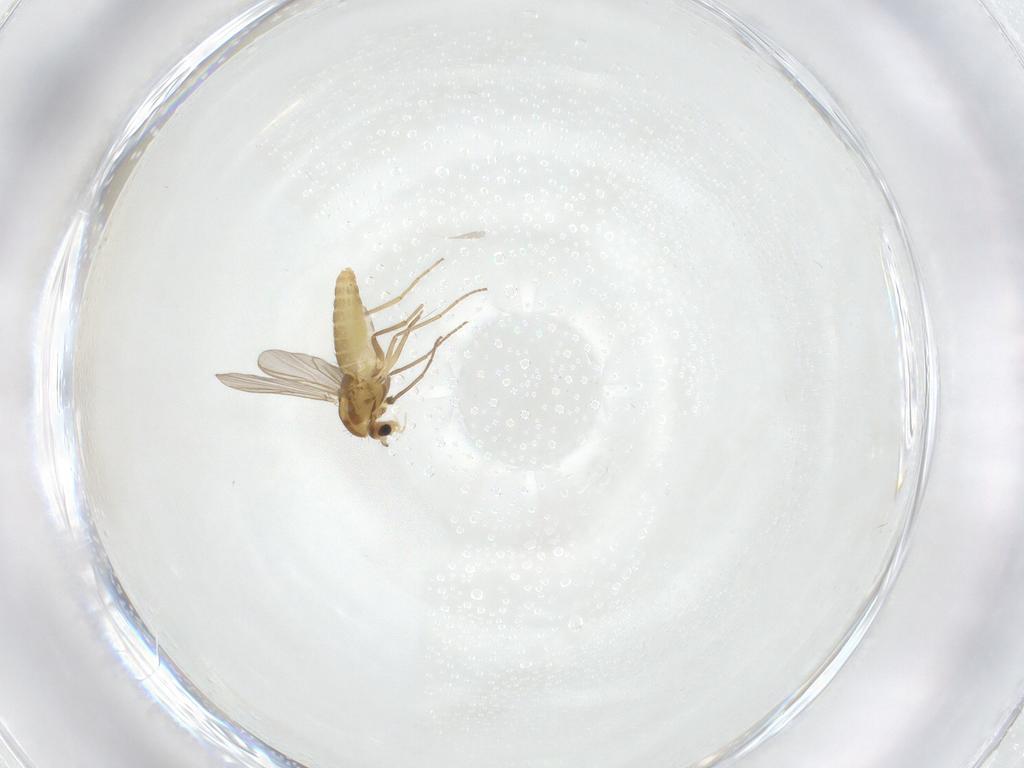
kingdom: Animalia
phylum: Arthropoda
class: Insecta
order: Diptera
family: Chironomidae
